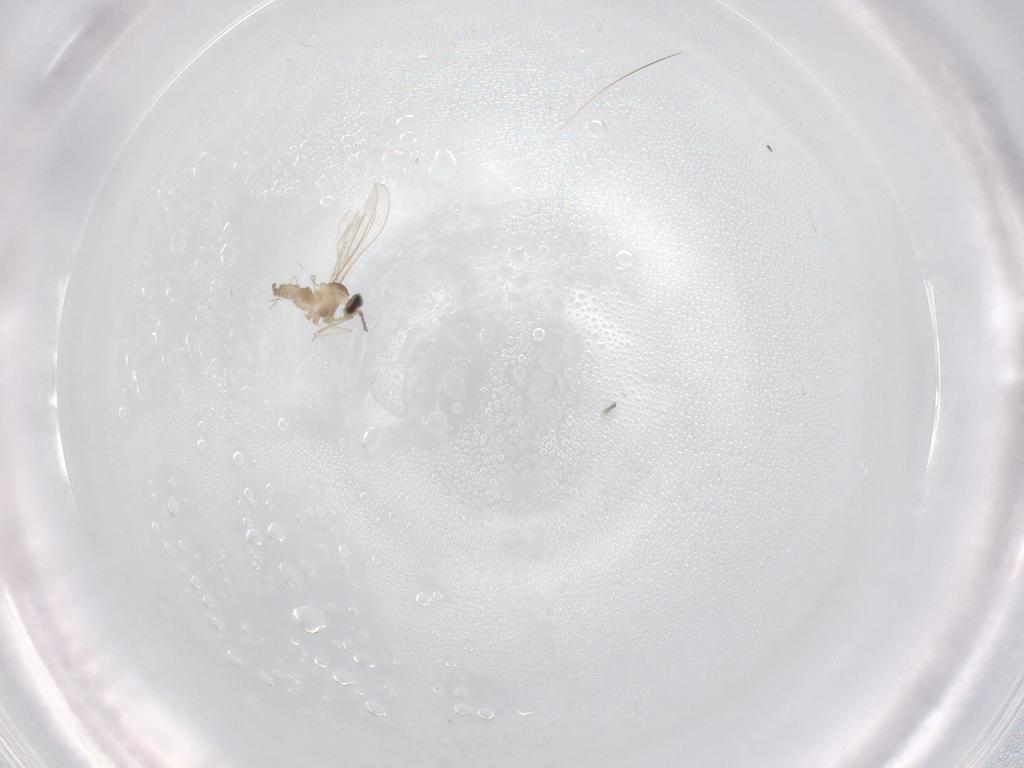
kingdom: Animalia
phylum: Arthropoda
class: Insecta
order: Diptera
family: Cecidomyiidae
